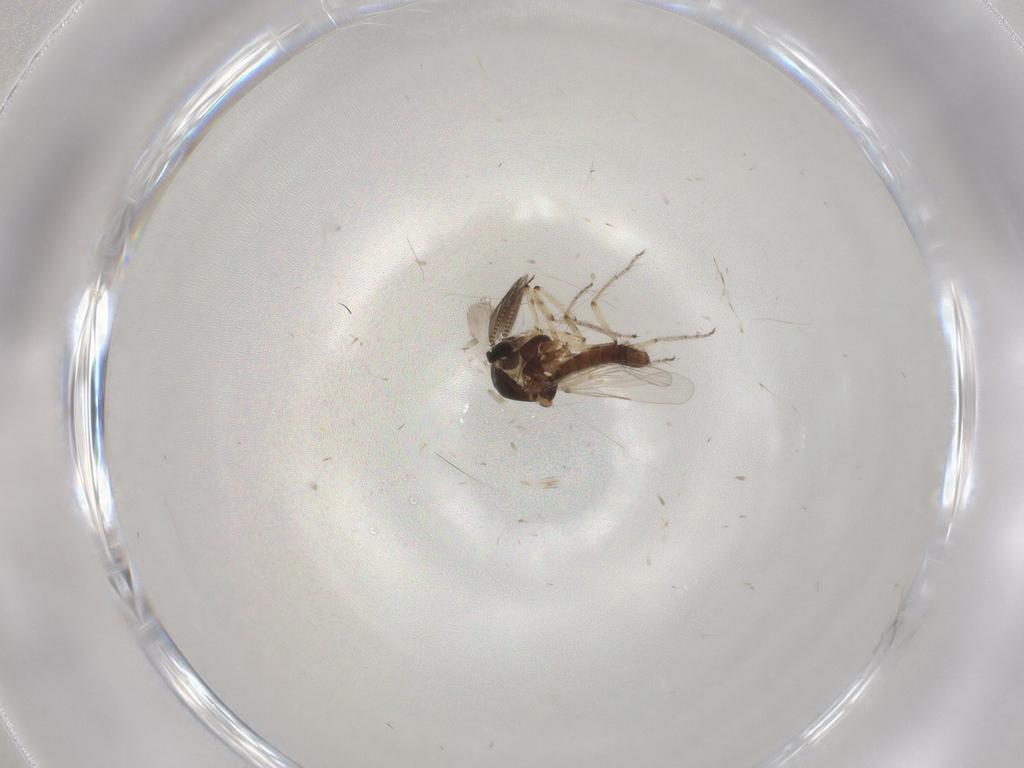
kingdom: Animalia
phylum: Arthropoda
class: Insecta
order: Diptera
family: Ceratopogonidae
